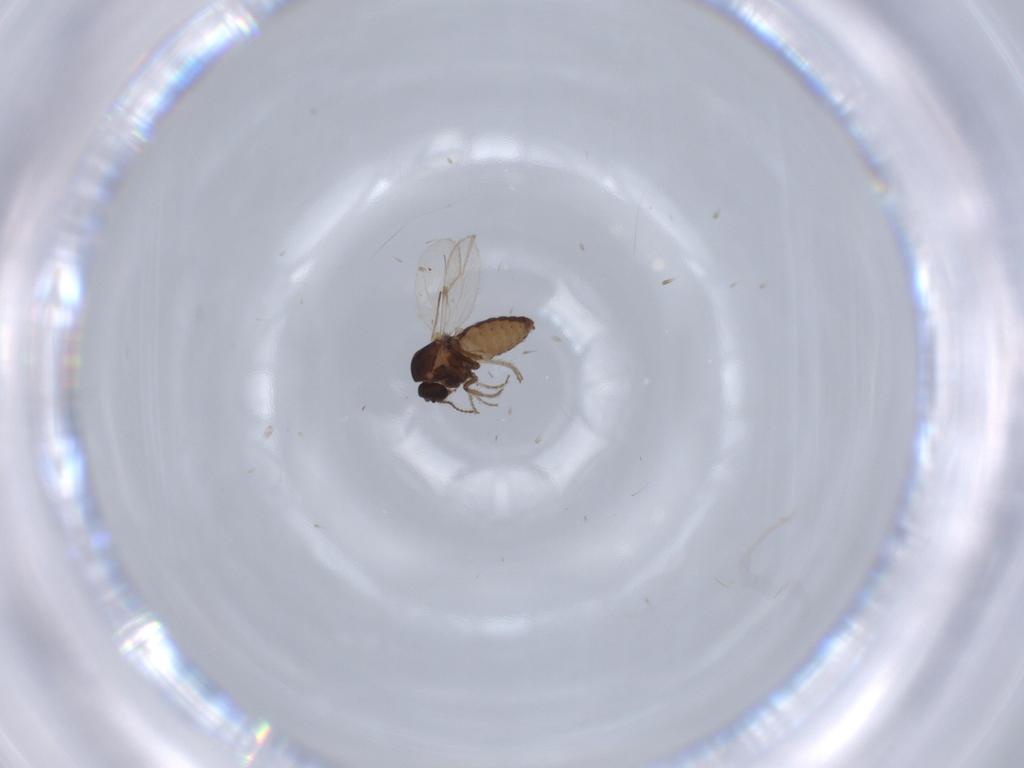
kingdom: Animalia
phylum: Arthropoda
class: Insecta
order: Diptera
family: Ceratopogonidae
